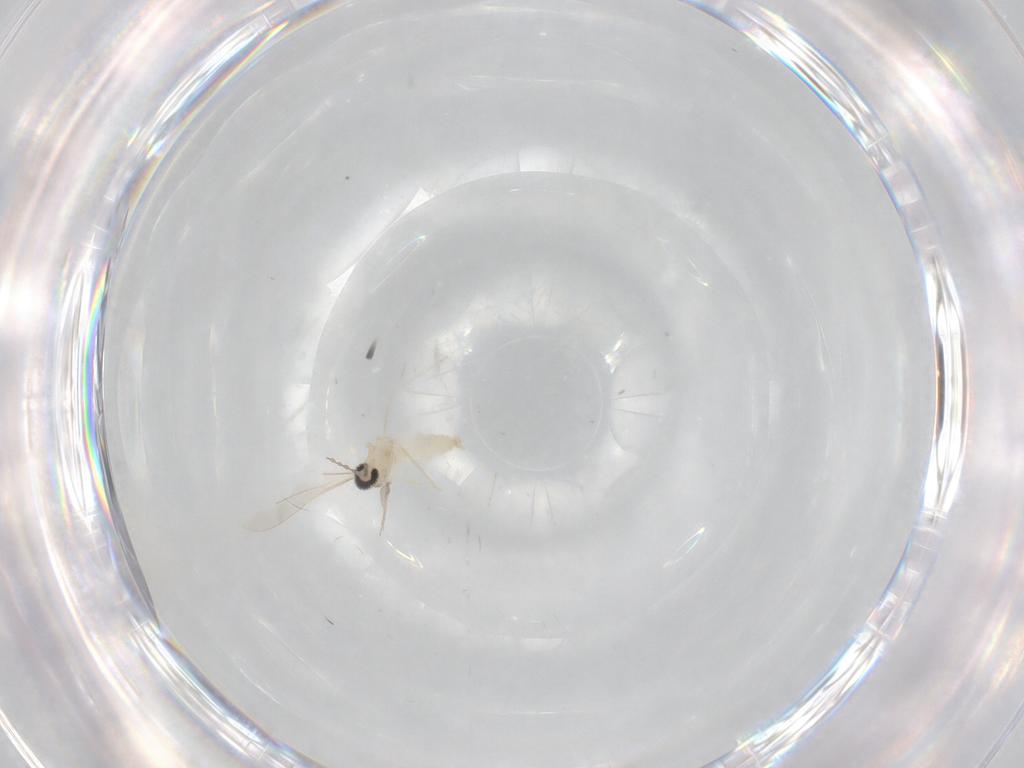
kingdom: Animalia
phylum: Arthropoda
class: Insecta
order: Diptera
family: Cecidomyiidae
